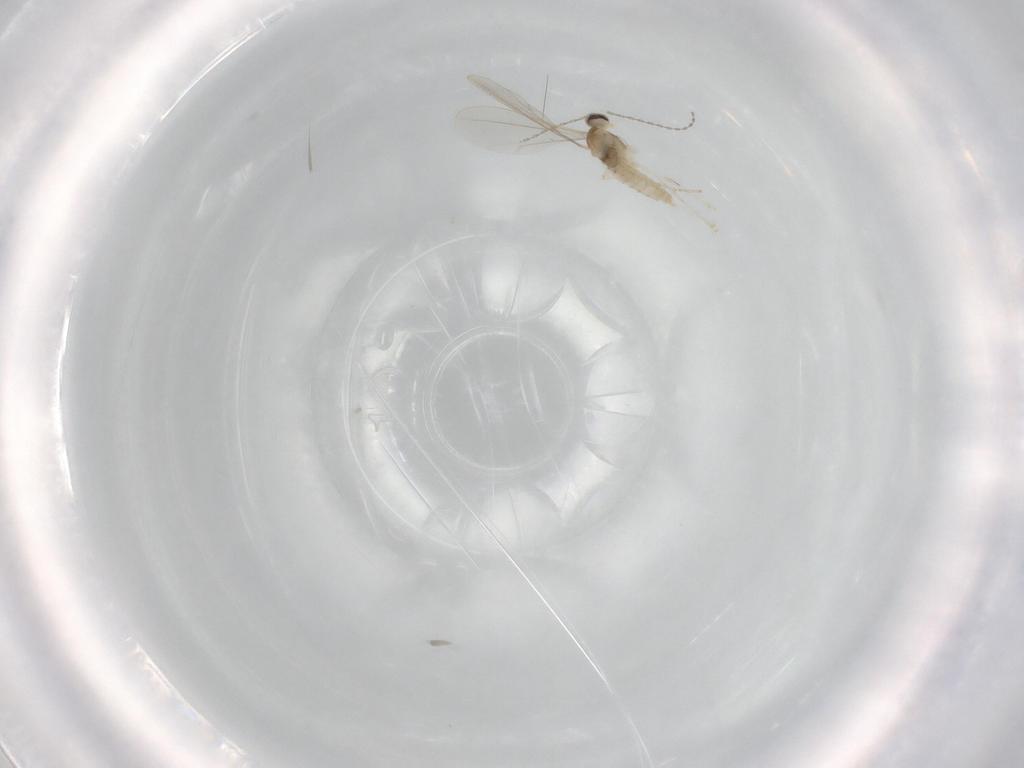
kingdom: Animalia
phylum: Arthropoda
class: Insecta
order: Diptera
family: Cecidomyiidae
